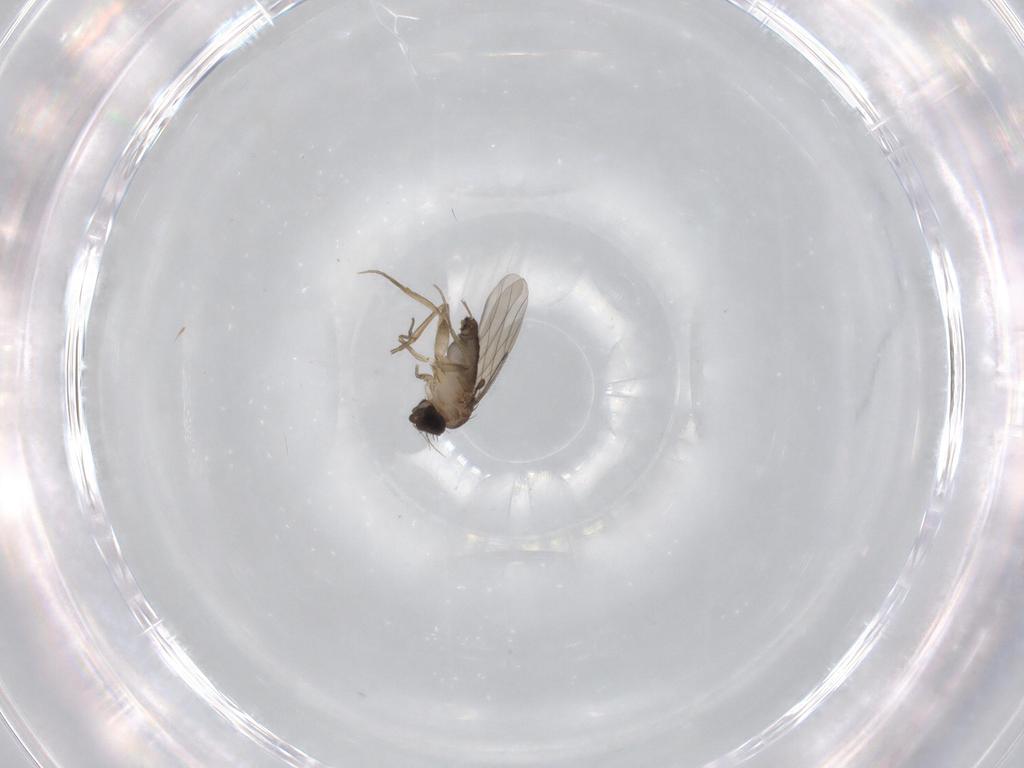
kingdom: Animalia
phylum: Arthropoda
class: Insecta
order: Diptera
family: Phoridae
